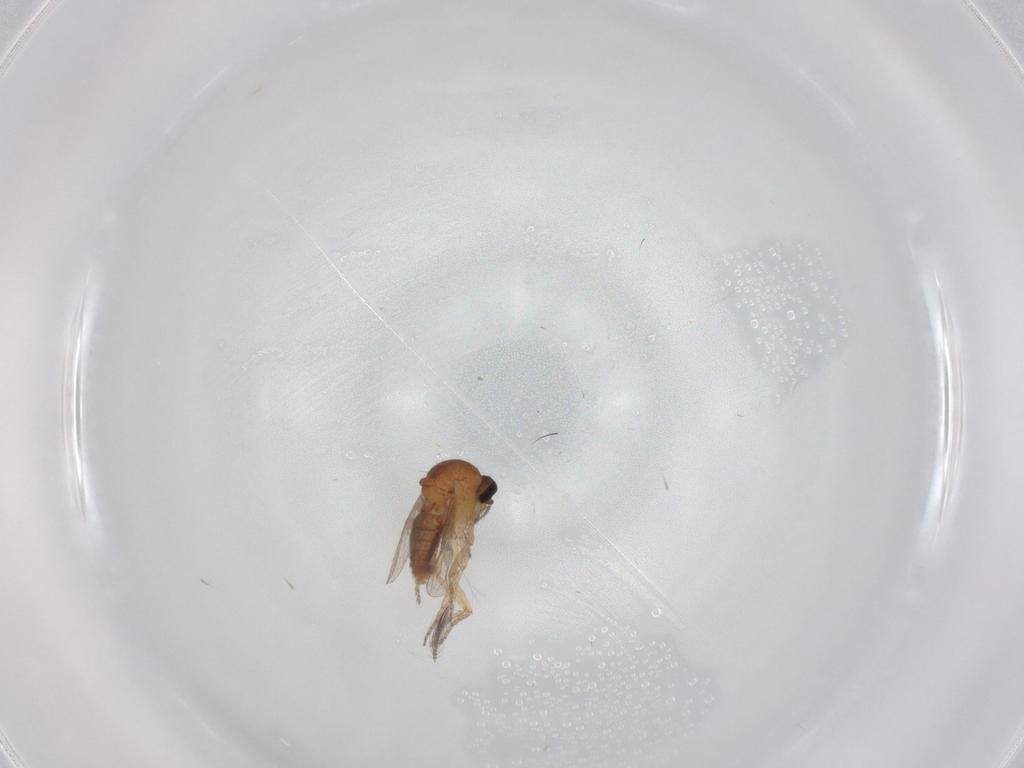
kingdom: Animalia
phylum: Arthropoda
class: Insecta
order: Diptera
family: Ceratopogonidae
